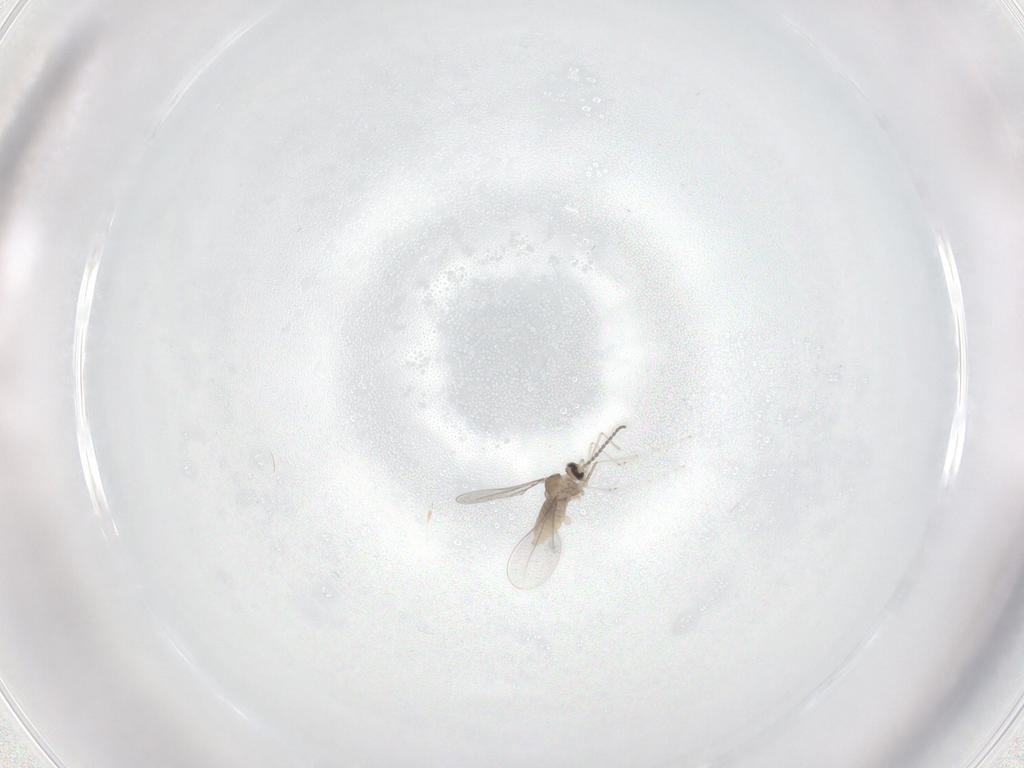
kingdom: Animalia
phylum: Arthropoda
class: Insecta
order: Diptera
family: Cecidomyiidae
